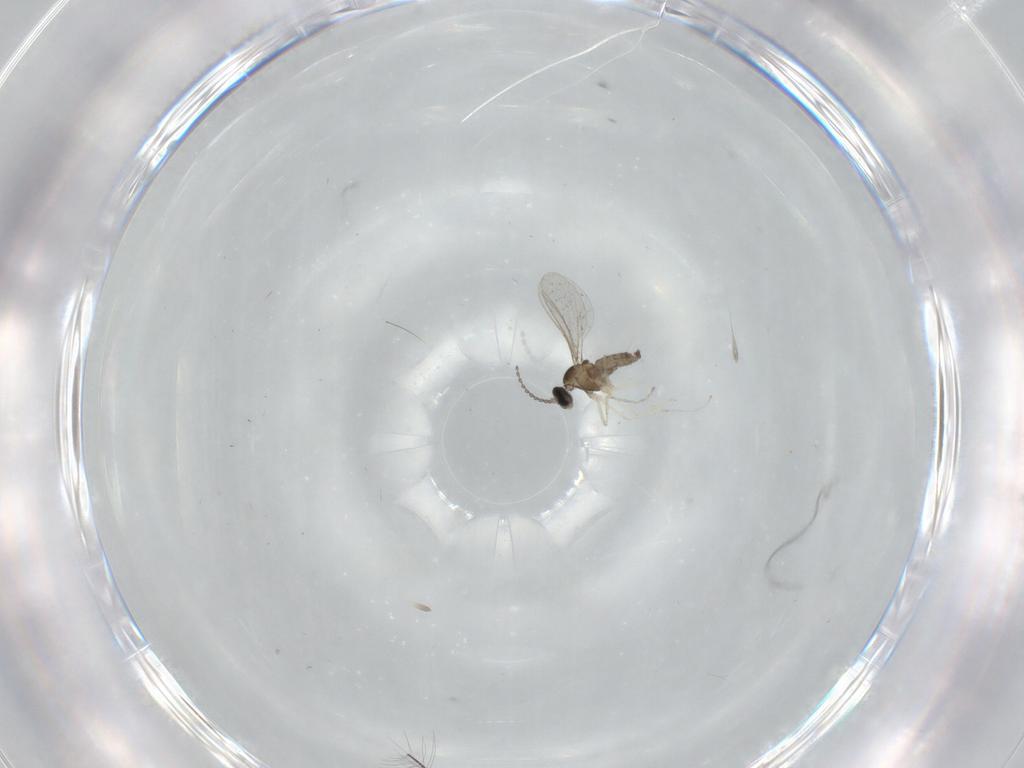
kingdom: Animalia
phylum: Arthropoda
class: Insecta
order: Diptera
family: Cecidomyiidae
